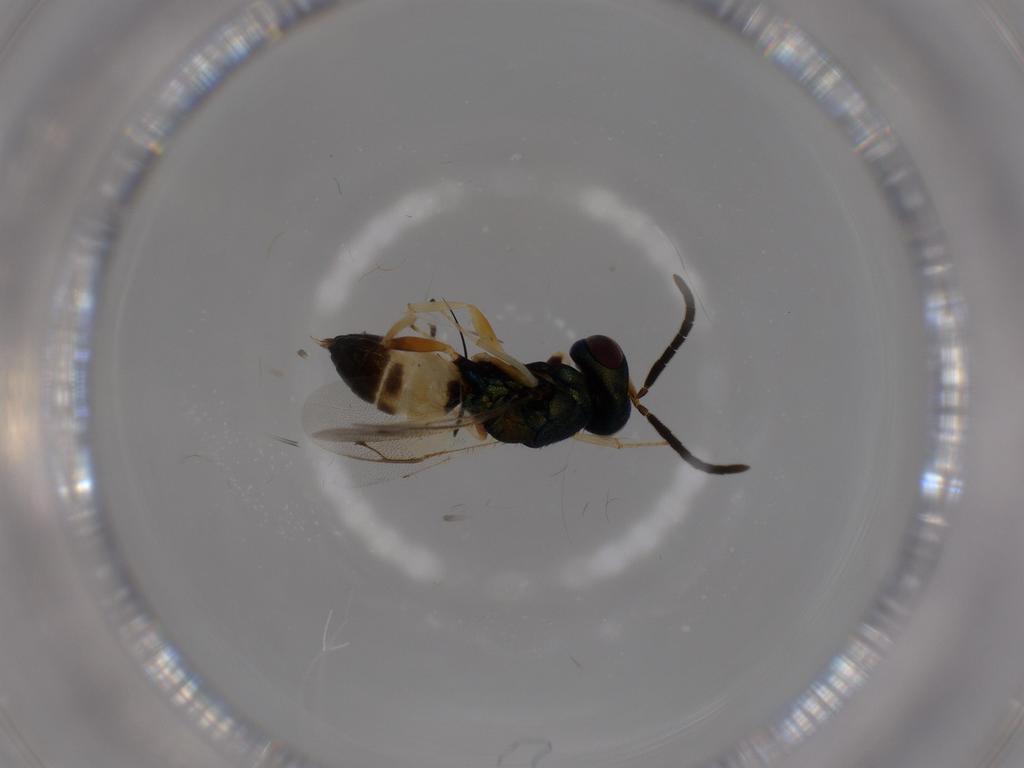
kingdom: Animalia
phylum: Arthropoda
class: Insecta
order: Hymenoptera
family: Pteromalidae
